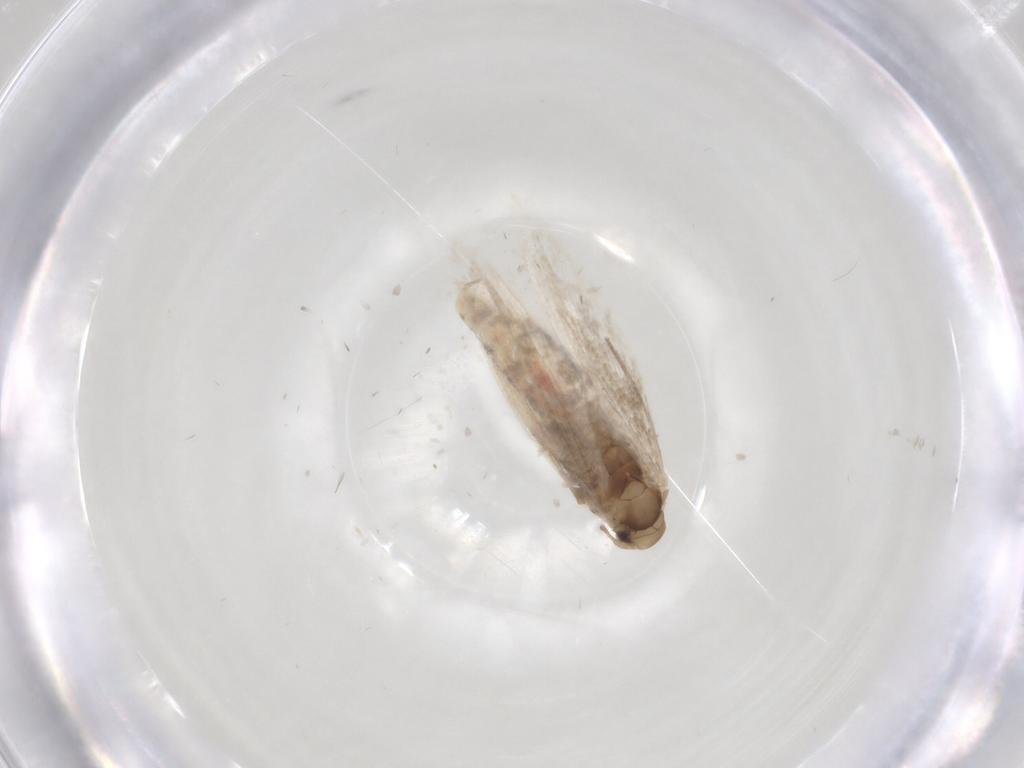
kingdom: Animalia
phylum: Arthropoda
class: Insecta
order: Lepidoptera
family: Gracillariidae
